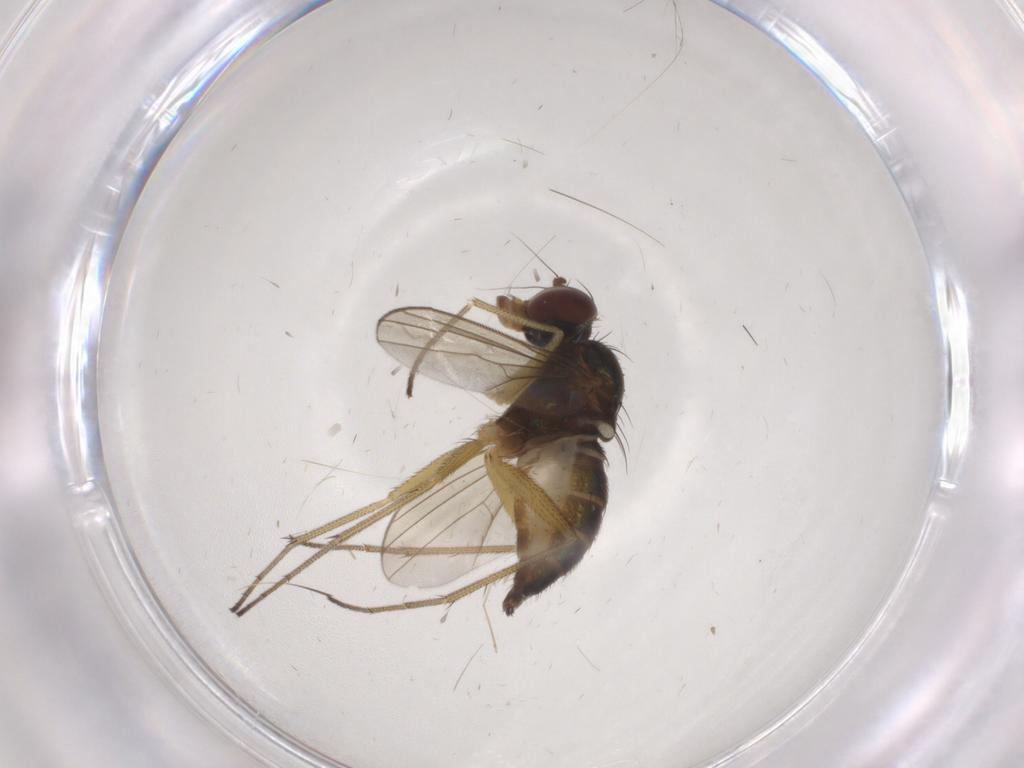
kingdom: Animalia
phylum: Arthropoda
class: Insecta
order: Diptera
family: Dolichopodidae
